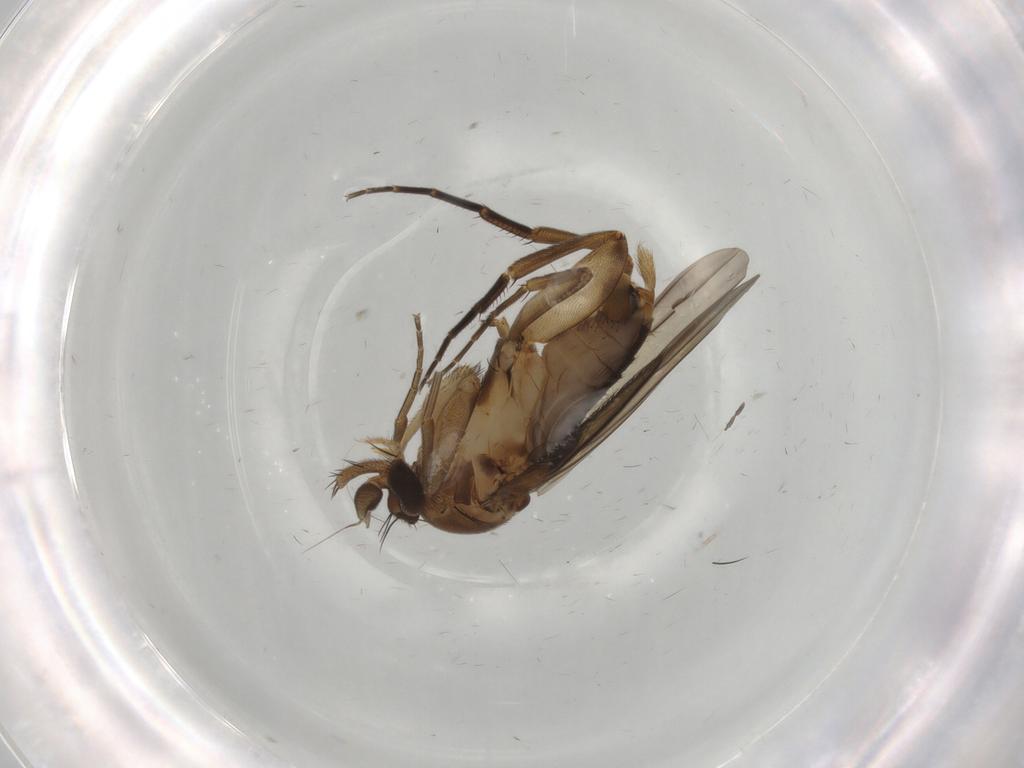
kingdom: Animalia
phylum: Arthropoda
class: Insecta
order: Diptera
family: Phoridae
